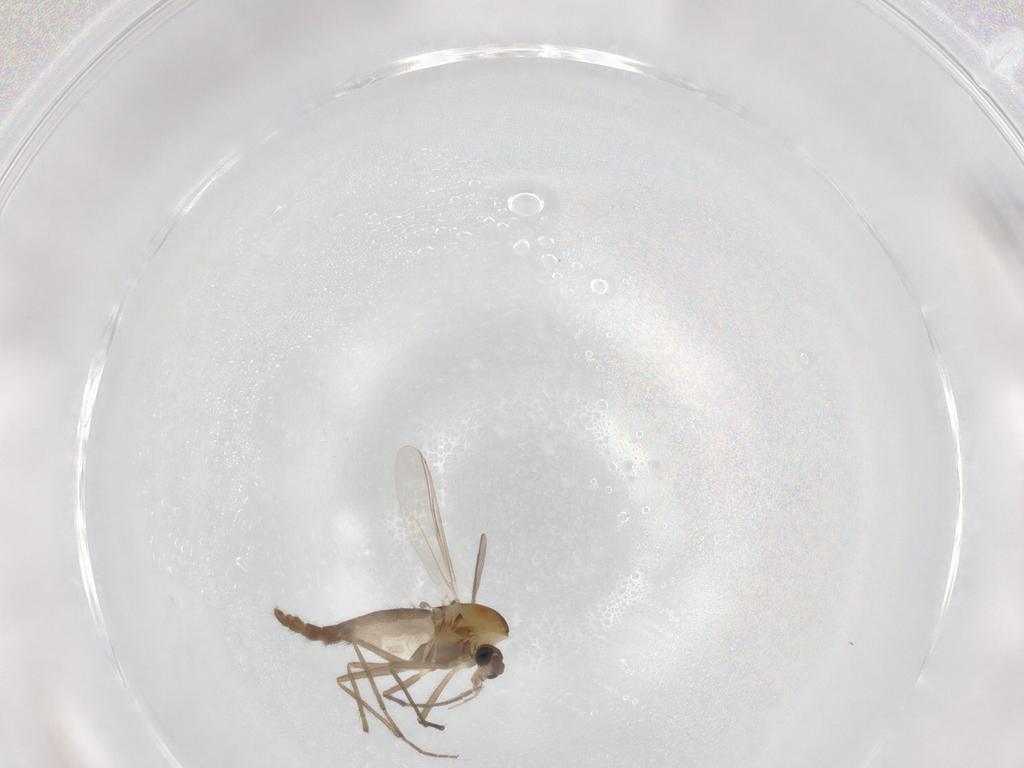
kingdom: Animalia
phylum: Arthropoda
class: Insecta
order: Diptera
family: Chironomidae
